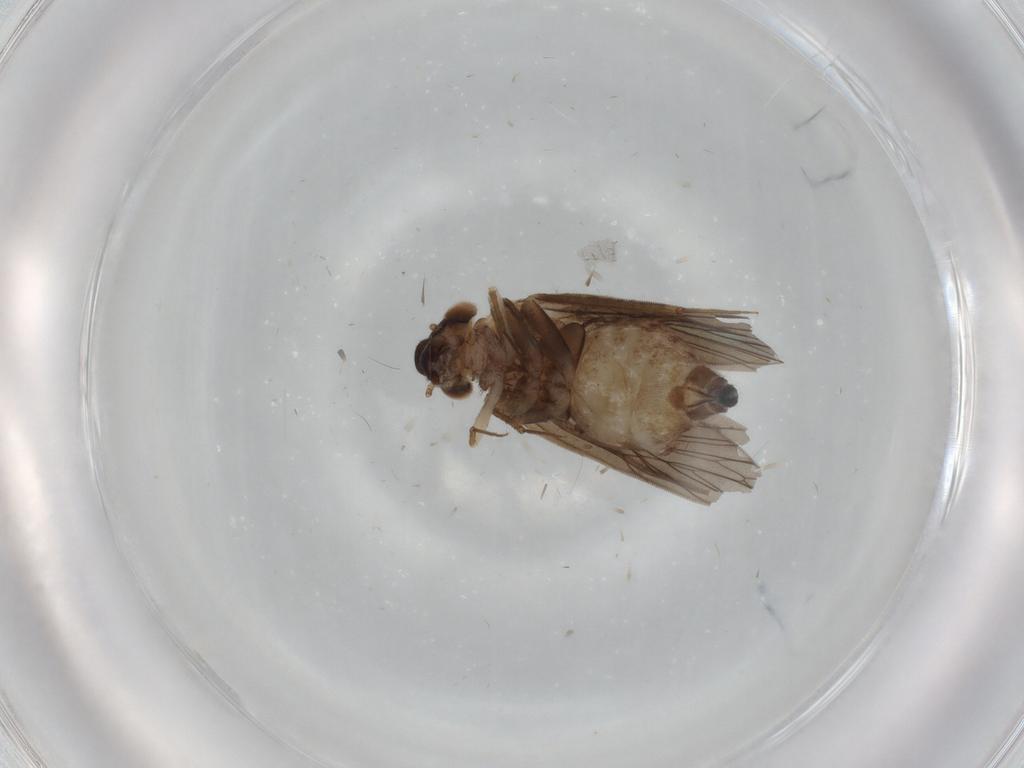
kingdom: Animalia
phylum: Arthropoda
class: Insecta
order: Psocodea
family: Lepidopsocidae
